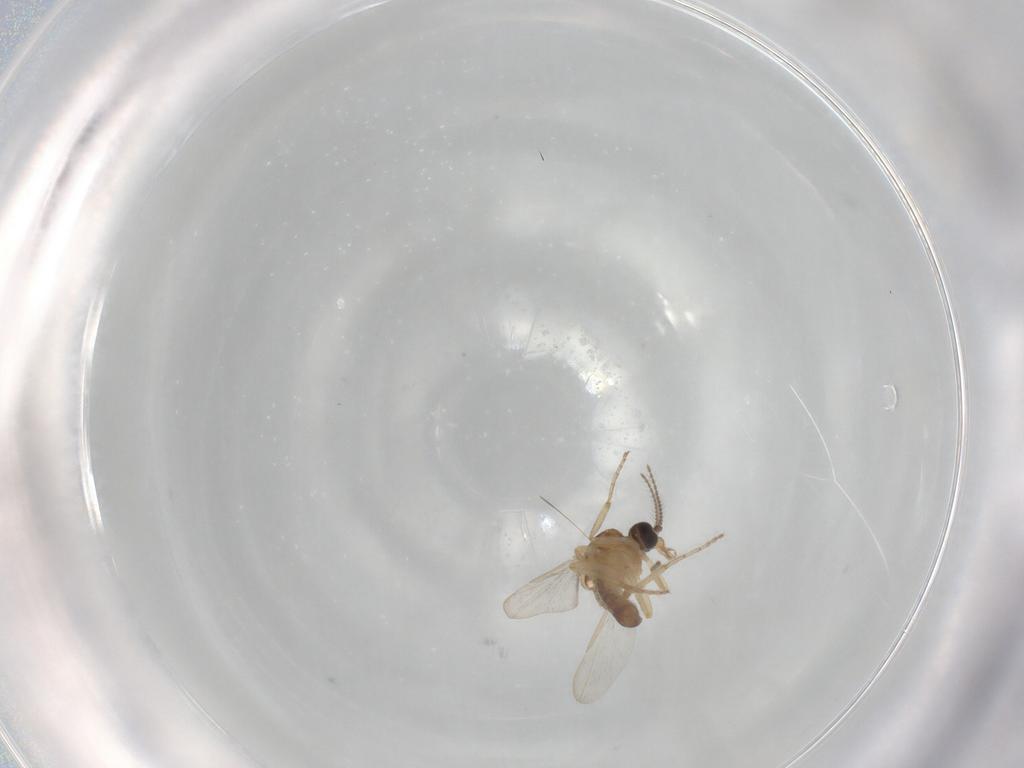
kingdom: Animalia
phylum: Arthropoda
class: Insecta
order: Diptera
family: Ceratopogonidae
